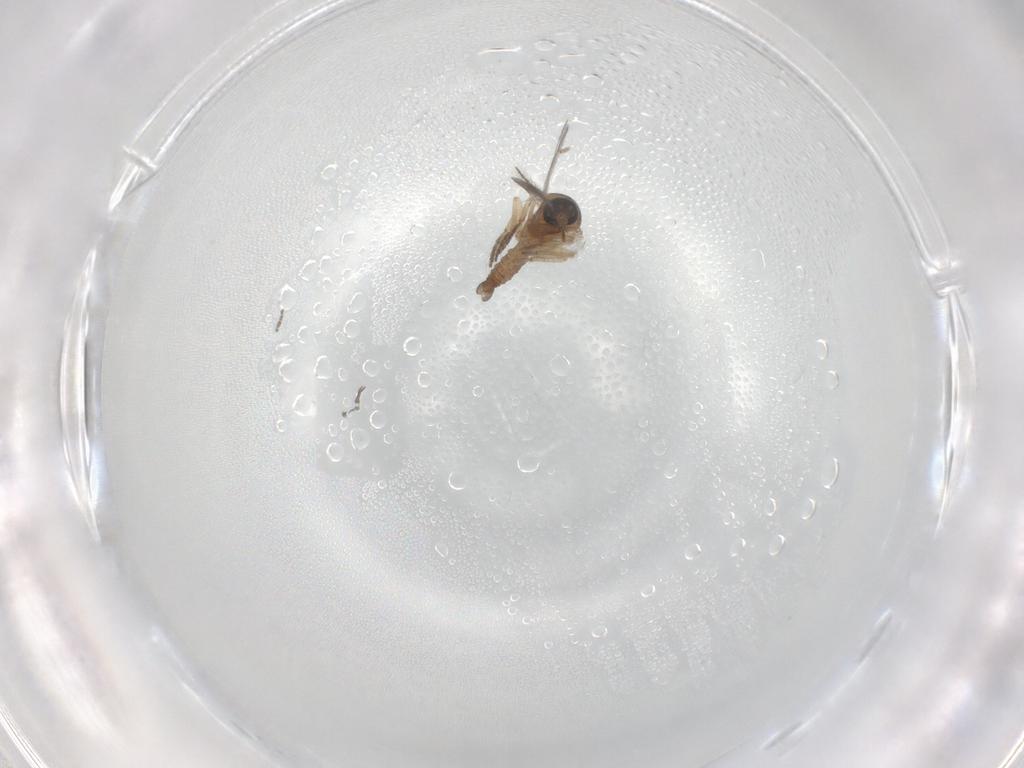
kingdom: Animalia
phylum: Arthropoda
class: Insecta
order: Diptera
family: Ceratopogonidae
